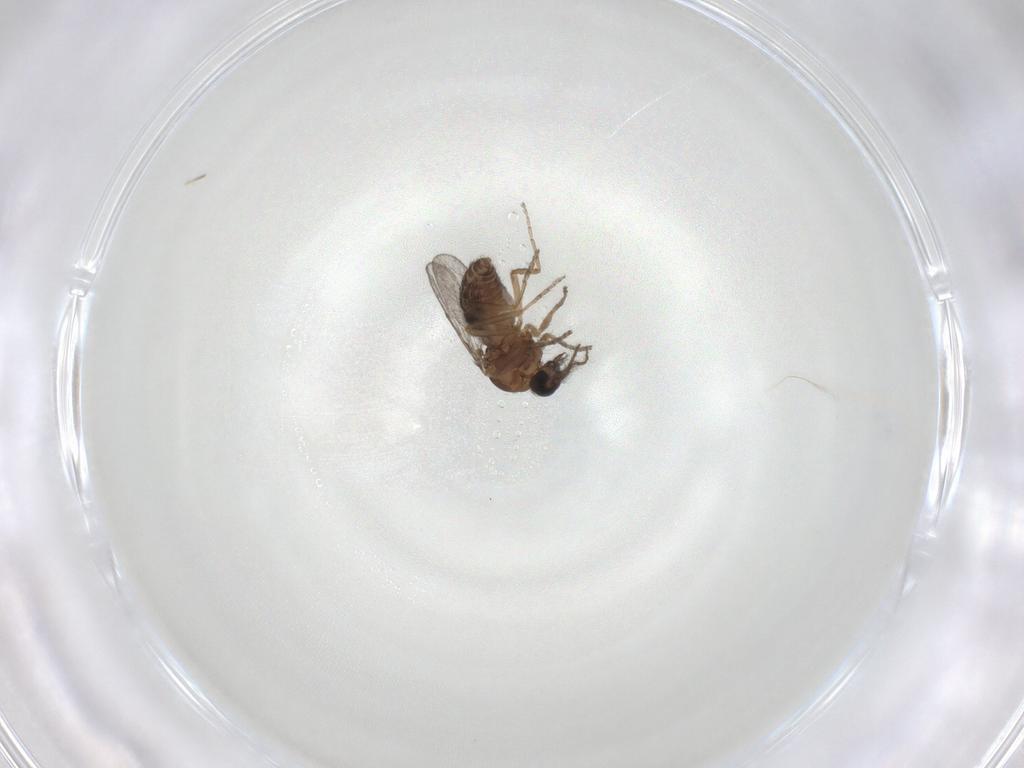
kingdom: Animalia
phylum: Arthropoda
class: Insecta
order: Diptera
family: Ceratopogonidae
